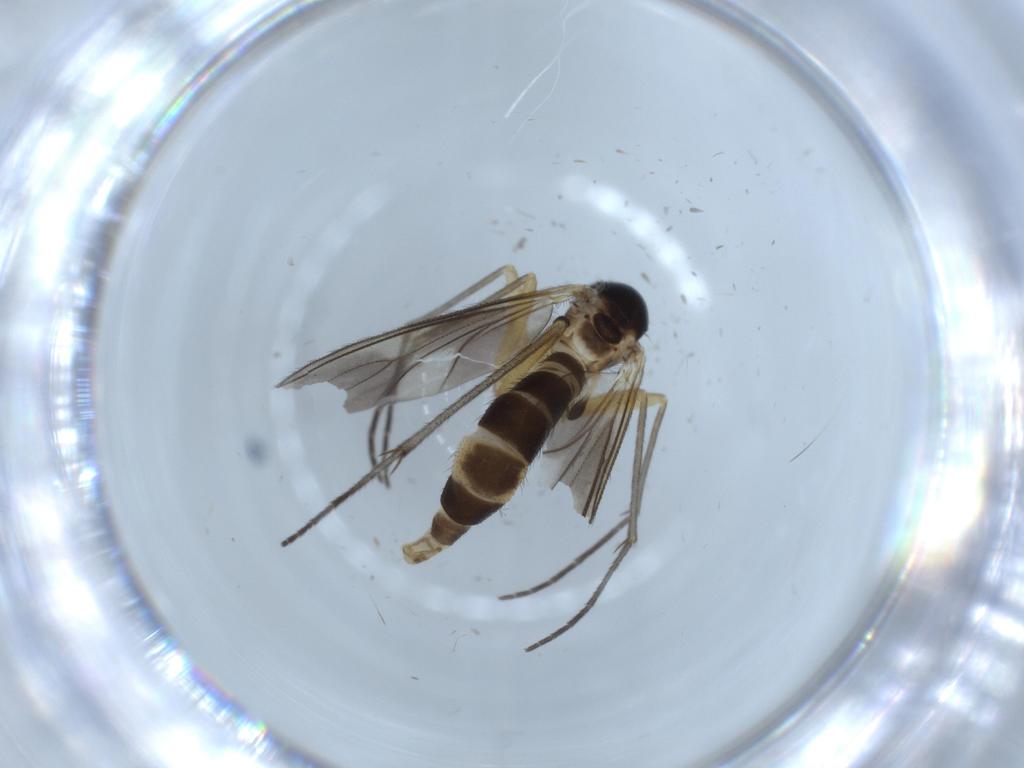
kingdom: Animalia
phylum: Arthropoda
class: Insecta
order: Diptera
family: Sciaridae
